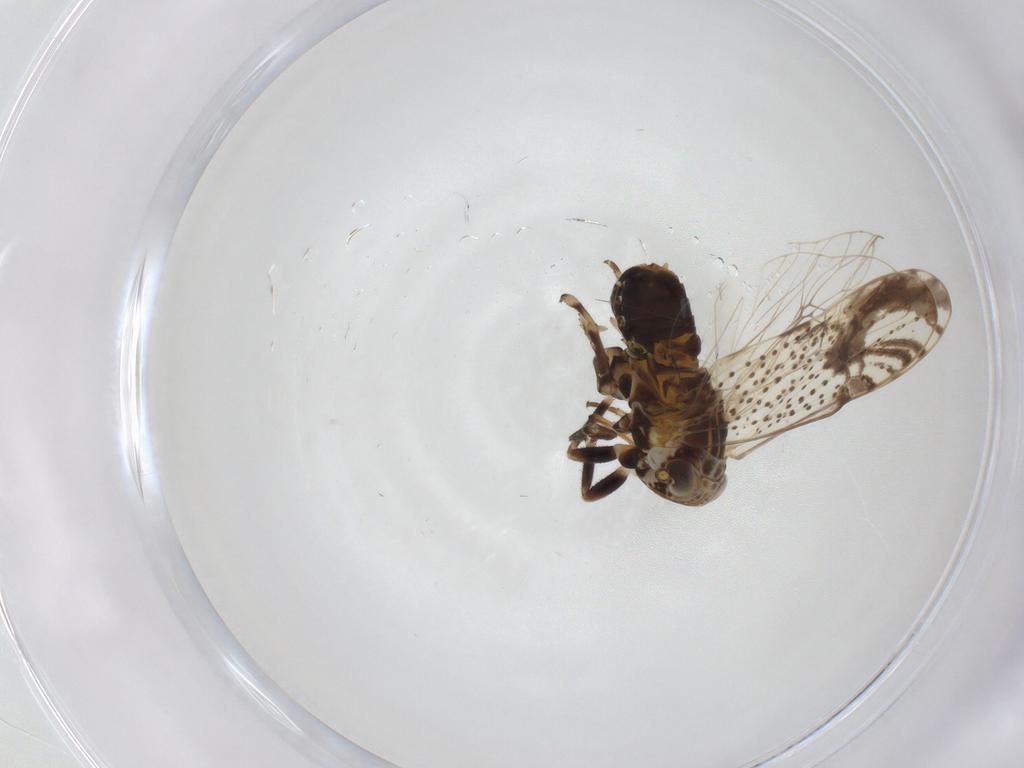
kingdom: Animalia
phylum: Arthropoda
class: Insecta
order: Hemiptera
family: Delphacidae
